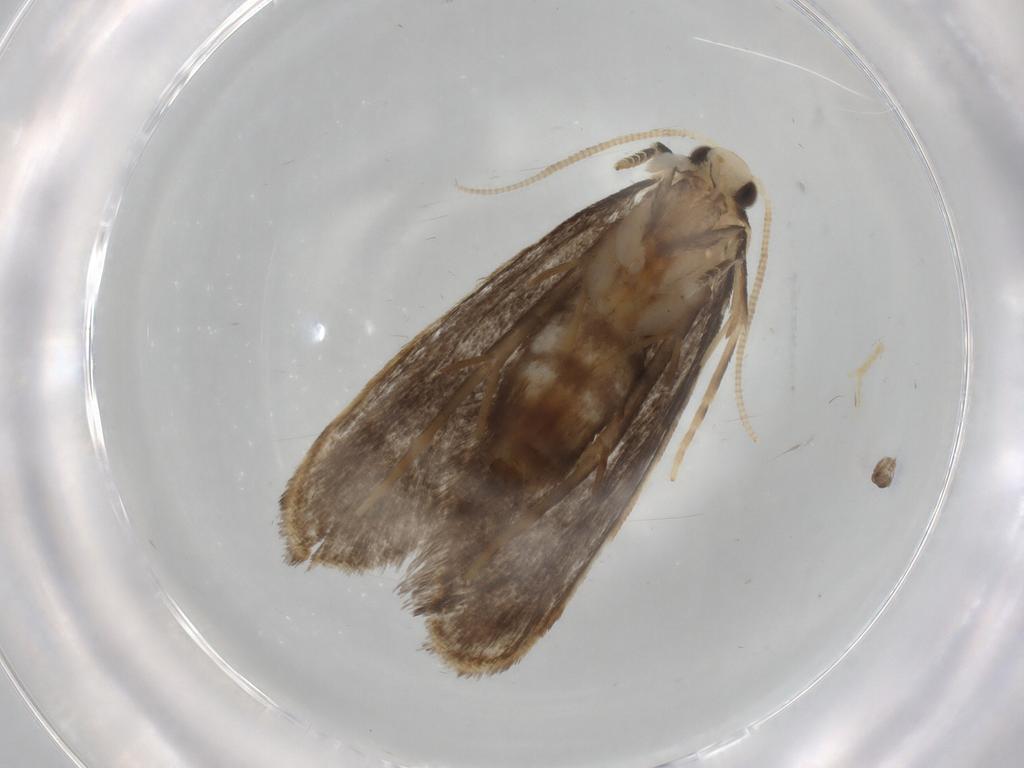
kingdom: Animalia
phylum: Arthropoda
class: Insecta
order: Lepidoptera
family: Dryadaulidae
